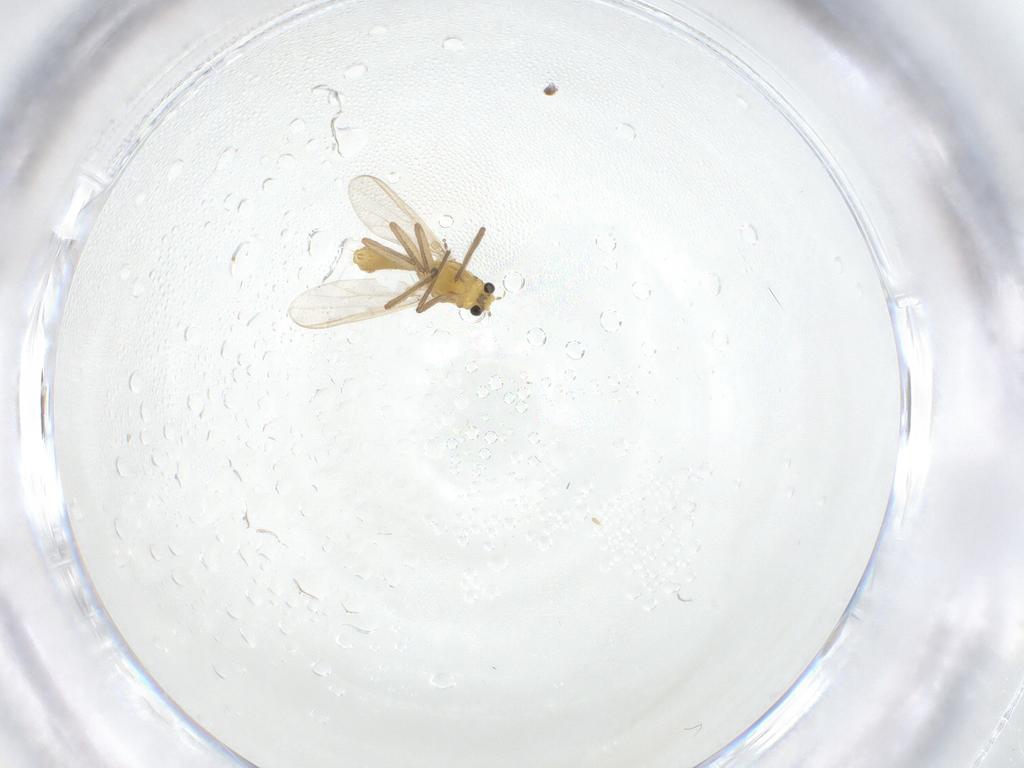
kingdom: Animalia
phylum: Arthropoda
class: Insecta
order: Diptera
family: Chironomidae
